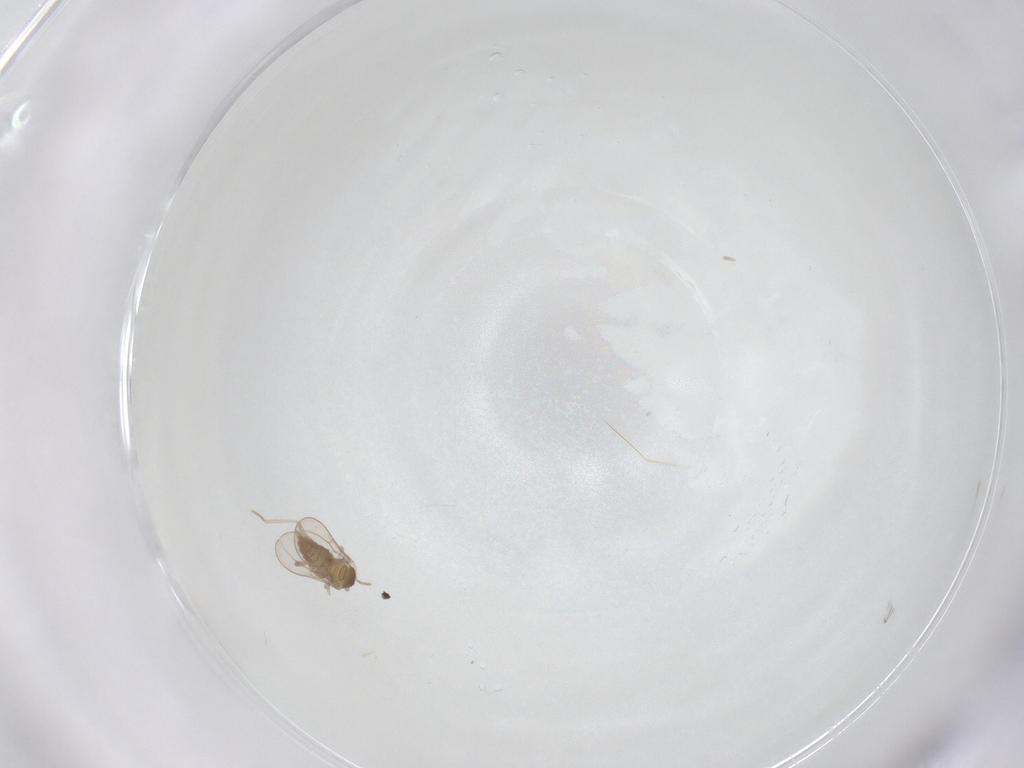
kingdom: Animalia
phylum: Arthropoda
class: Insecta
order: Diptera
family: Cecidomyiidae
